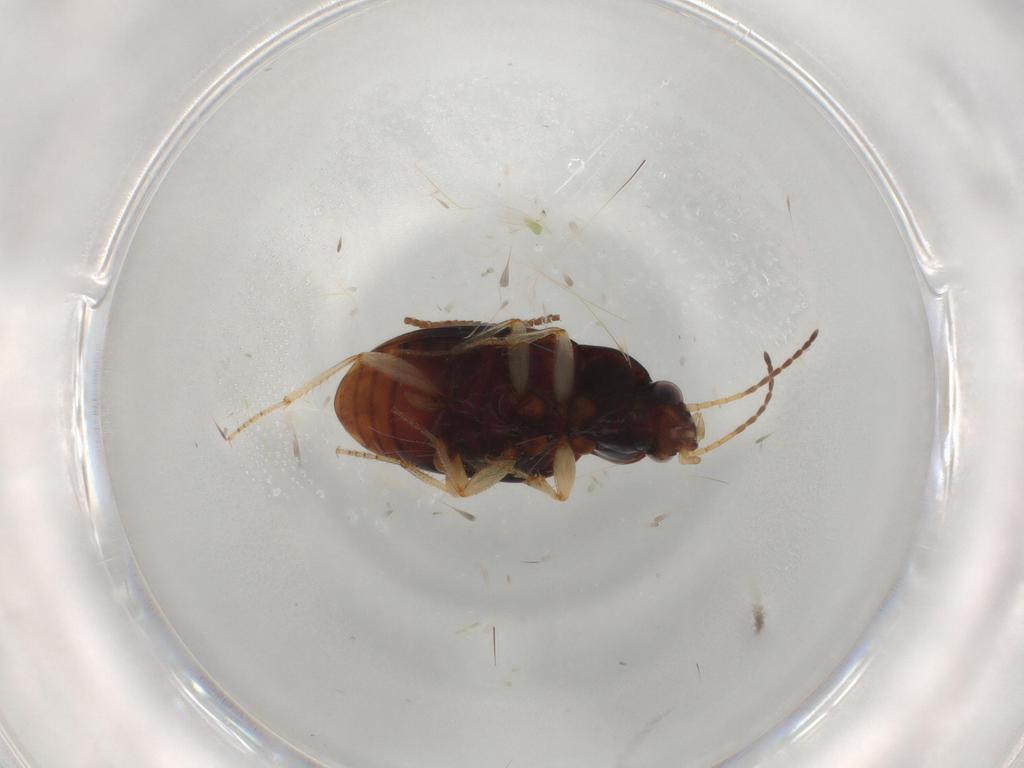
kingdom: Animalia
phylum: Arthropoda
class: Insecta
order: Coleoptera
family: Carabidae
